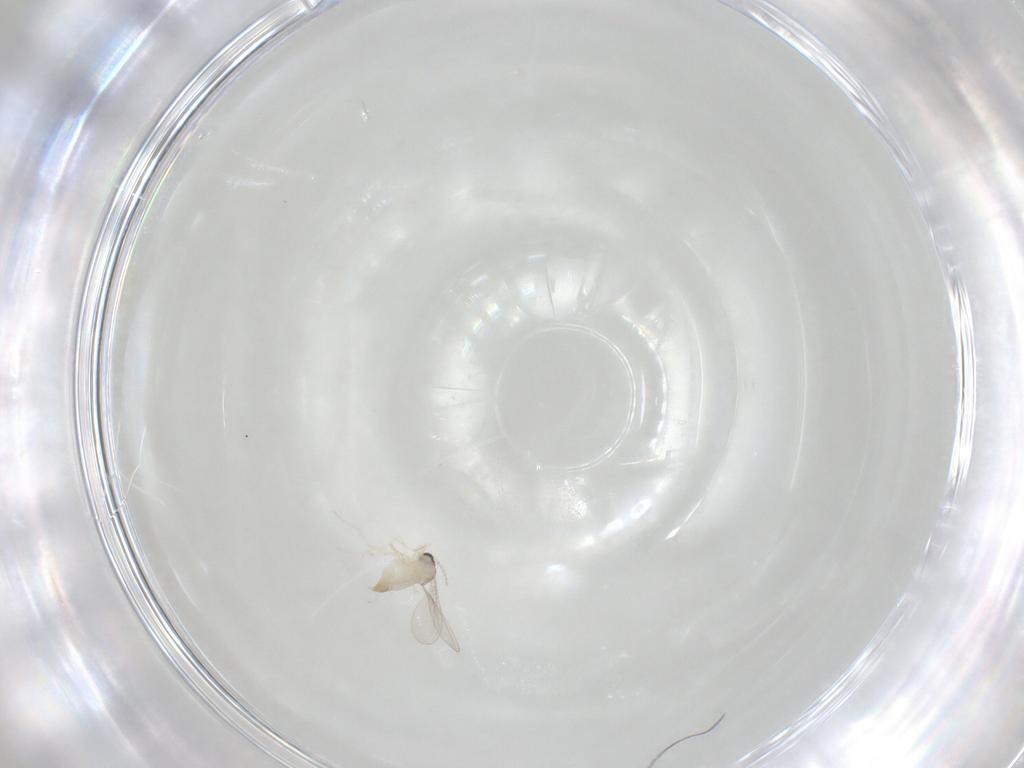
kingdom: Animalia
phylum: Arthropoda
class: Insecta
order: Diptera
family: Cecidomyiidae
